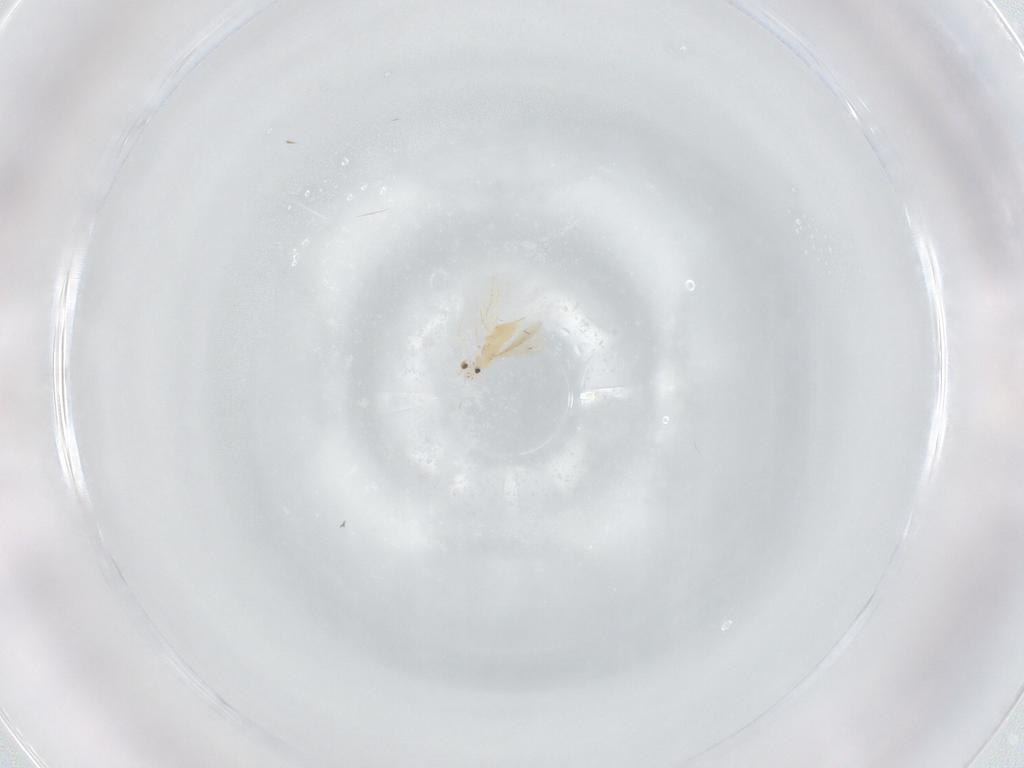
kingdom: Animalia
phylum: Arthropoda
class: Insecta
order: Hymenoptera
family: Aphelinidae
